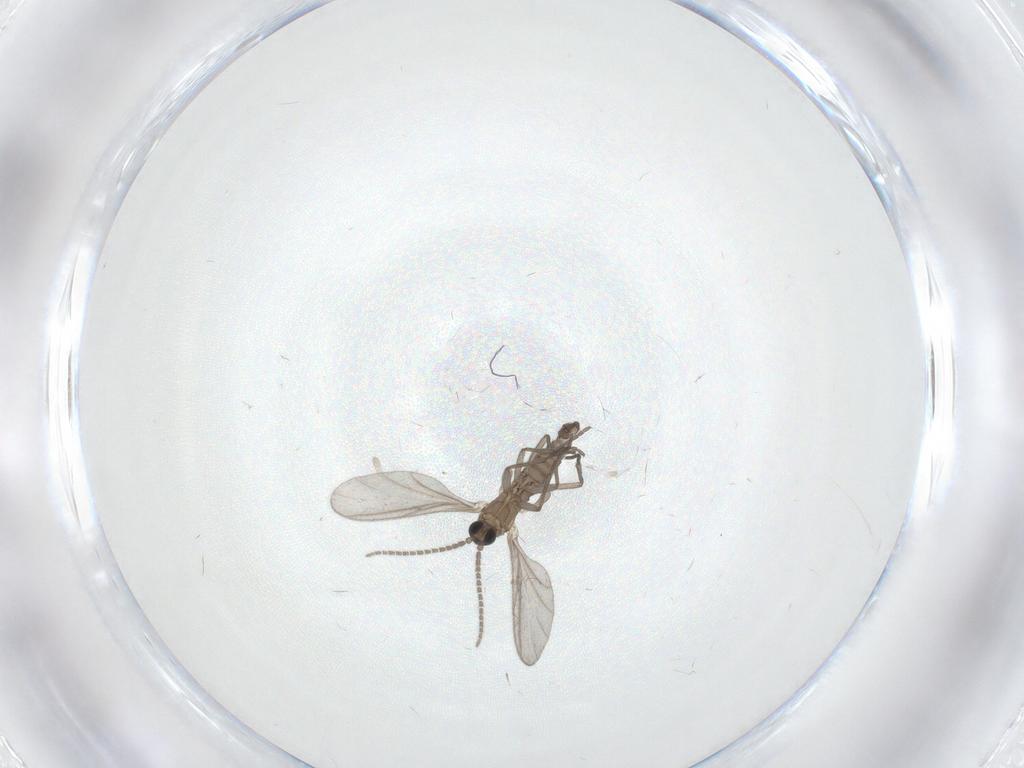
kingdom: Animalia
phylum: Arthropoda
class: Insecta
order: Diptera
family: Sciaridae
